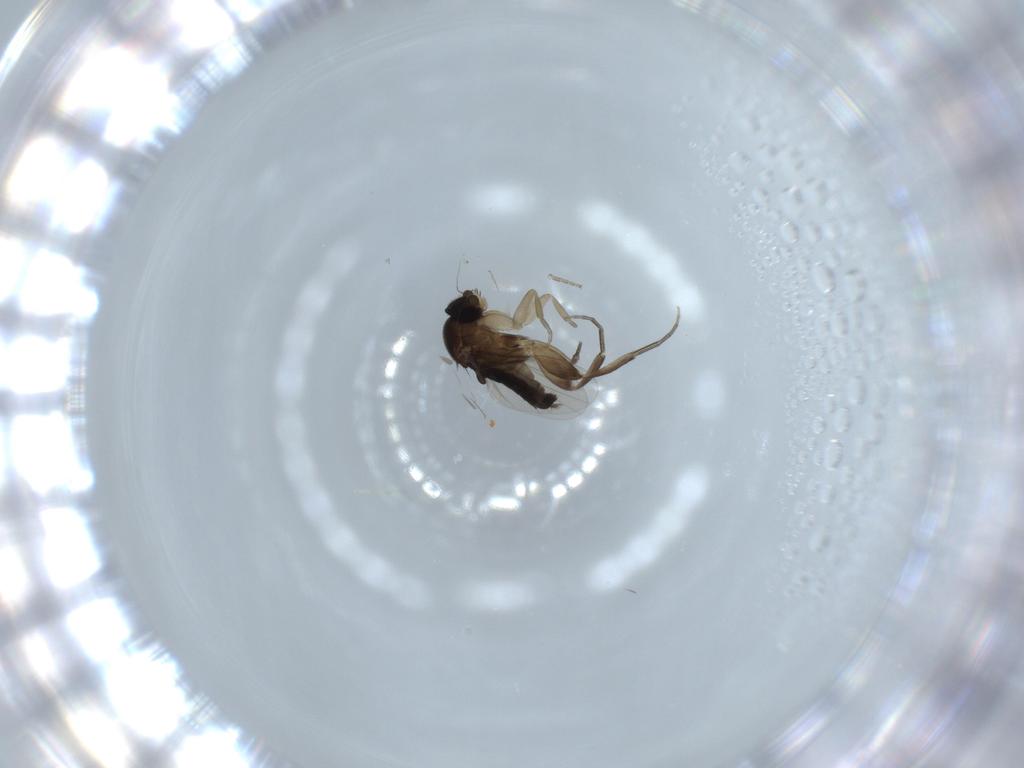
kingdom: Animalia
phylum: Arthropoda
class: Insecta
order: Diptera
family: Phoridae
